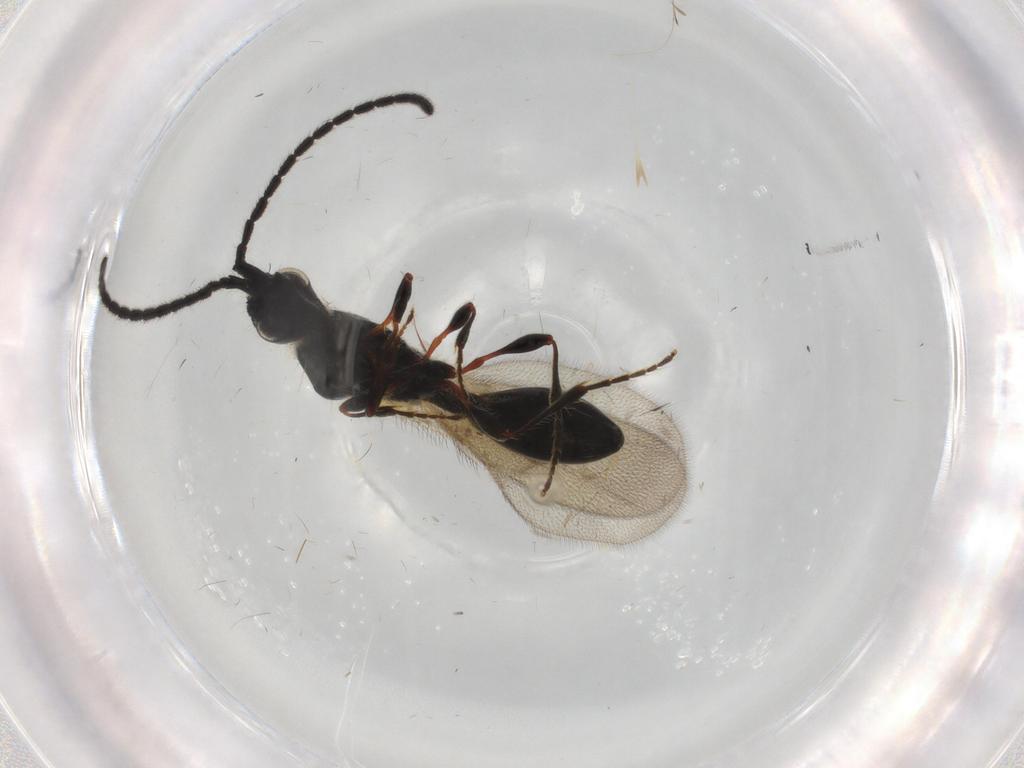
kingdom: Animalia
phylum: Arthropoda
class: Insecta
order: Hymenoptera
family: Diapriidae
